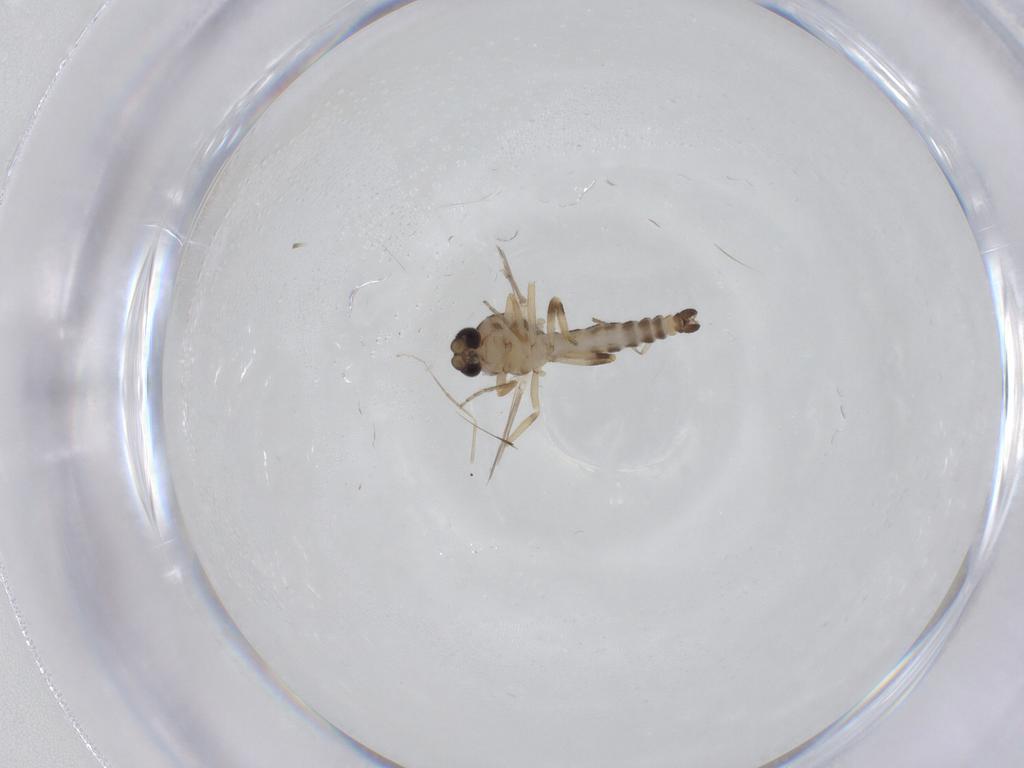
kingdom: Animalia
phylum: Arthropoda
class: Insecta
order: Diptera
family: Ceratopogonidae
